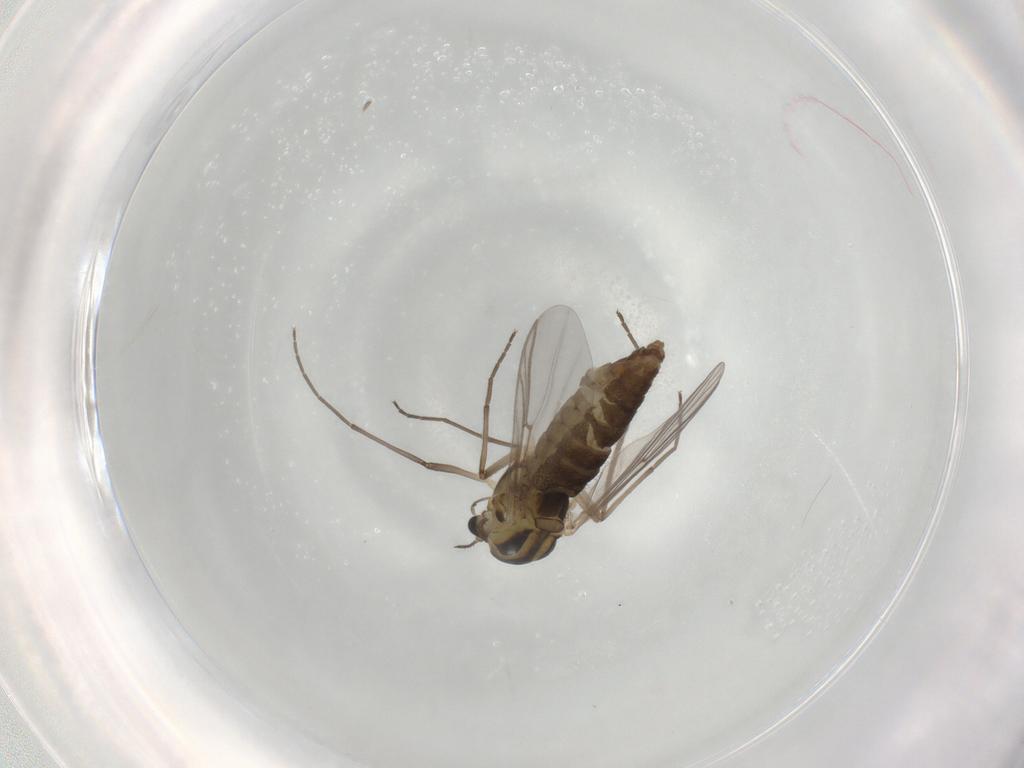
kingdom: Animalia
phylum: Arthropoda
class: Insecta
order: Diptera
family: Chironomidae
